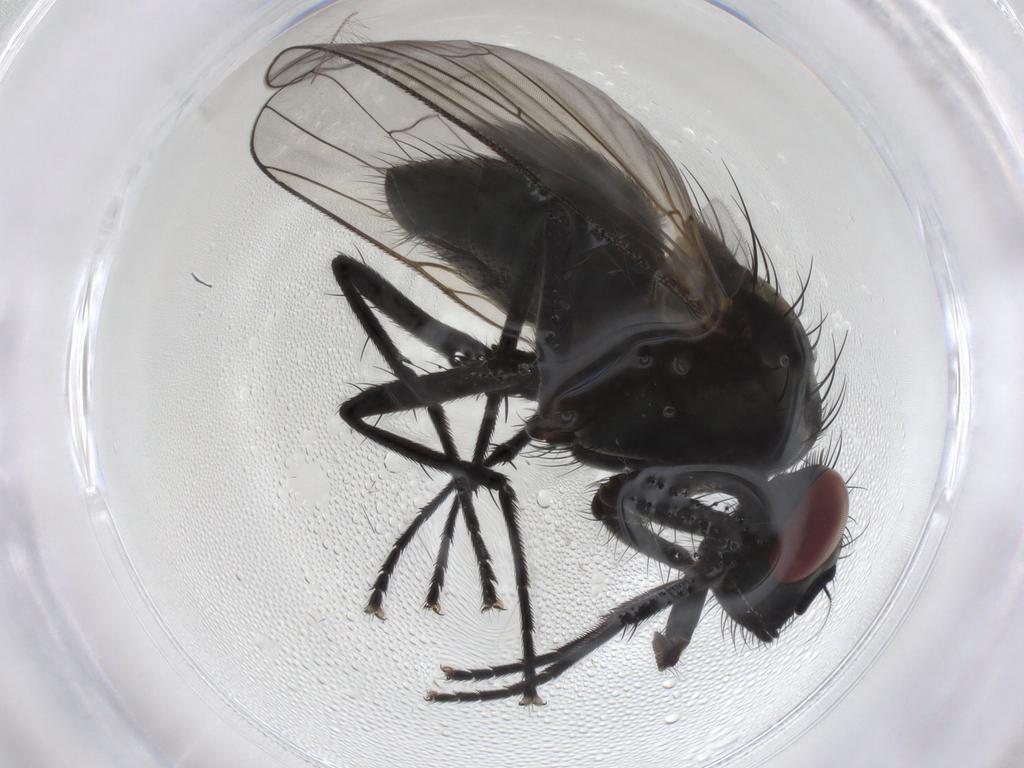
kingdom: Animalia
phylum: Arthropoda
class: Insecta
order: Diptera
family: Muscidae
